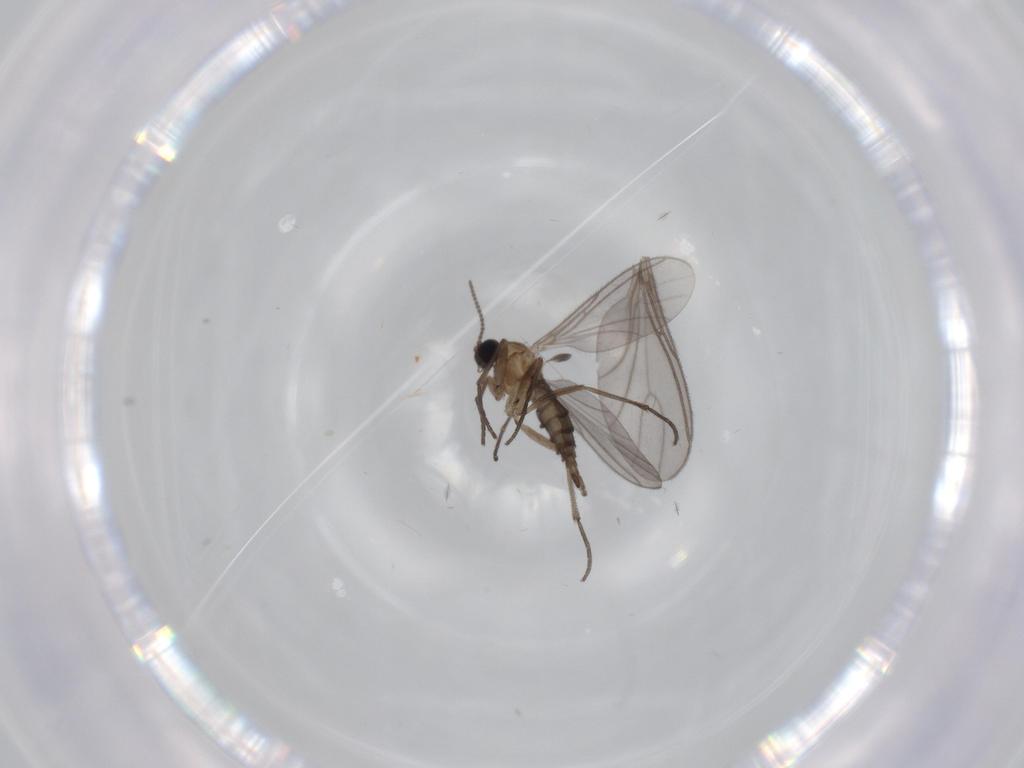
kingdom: Animalia
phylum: Arthropoda
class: Insecta
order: Diptera
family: Sciaridae
